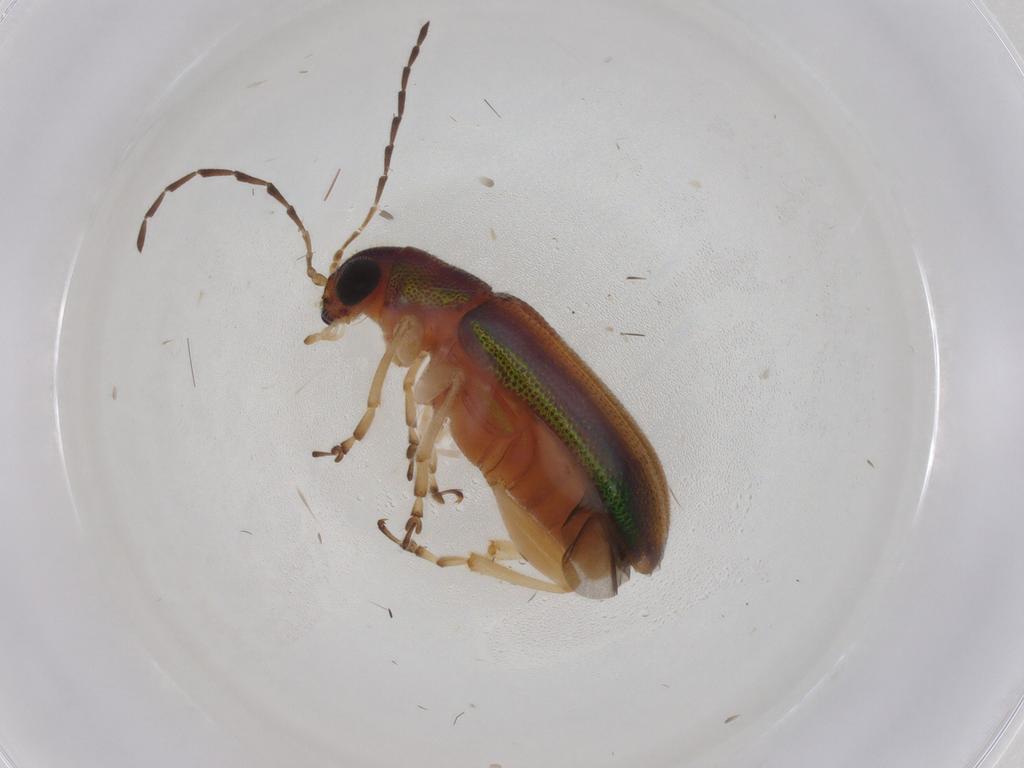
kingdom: Animalia
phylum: Arthropoda
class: Insecta
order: Coleoptera
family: Chrysomelidae
